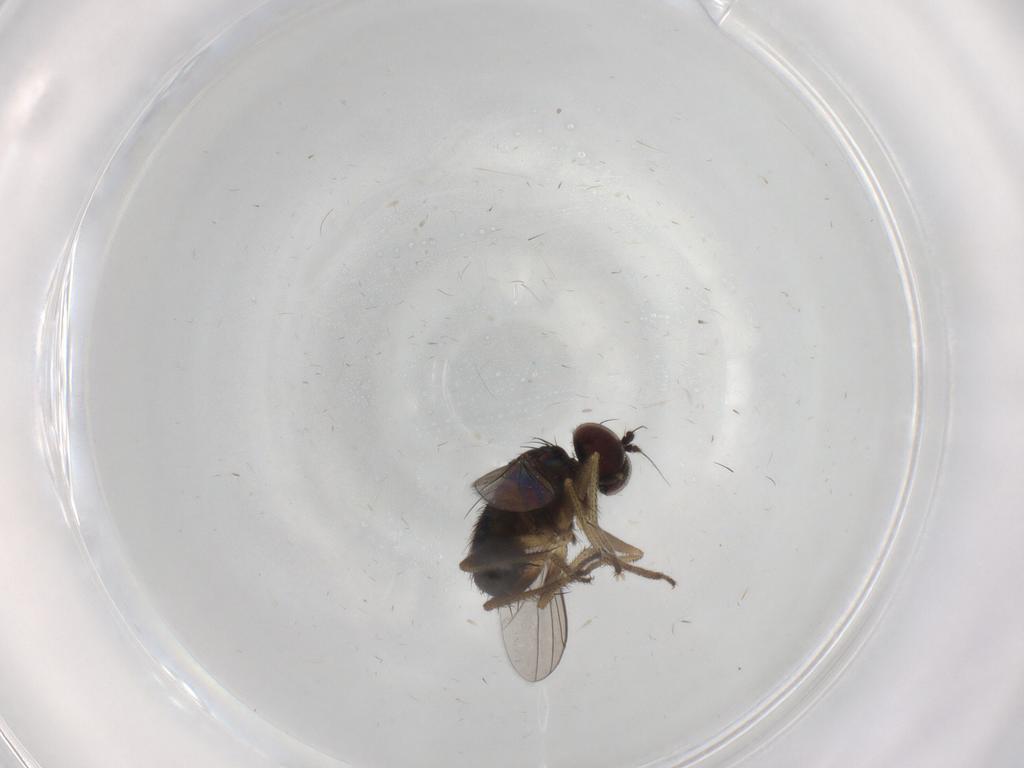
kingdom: Animalia
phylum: Arthropoda
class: Insecta
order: Diptera
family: Dolichopodidae
